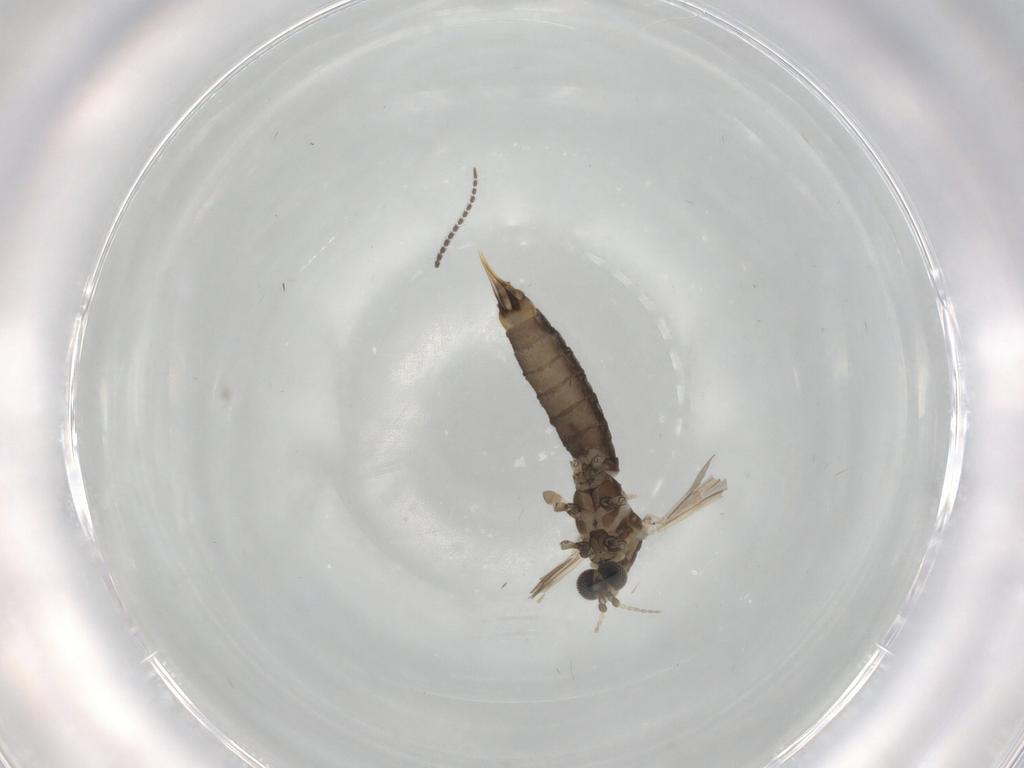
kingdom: Animalia
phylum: Arthropoda
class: Insecta
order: Diptera
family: Limoniidae
